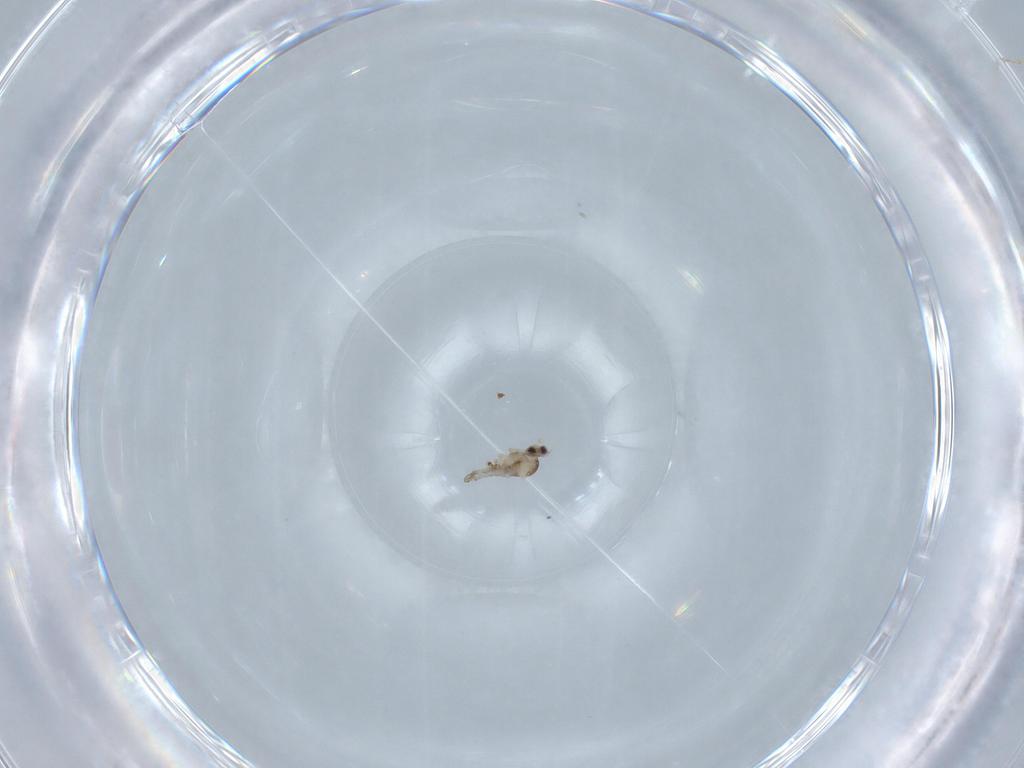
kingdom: Animalia
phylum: Arthropoda
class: Insecta
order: Diptera
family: Cecidomyiidae
